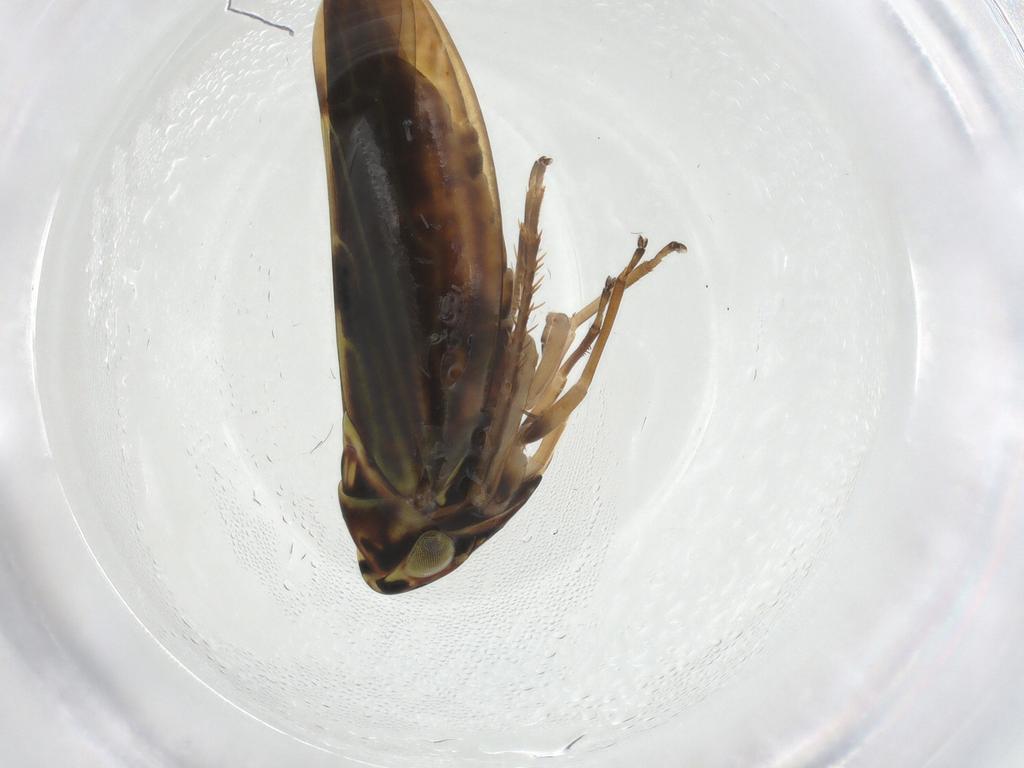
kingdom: Animalia
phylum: Arthropoda
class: Insecta
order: Hemiptera
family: Cicadellidae
